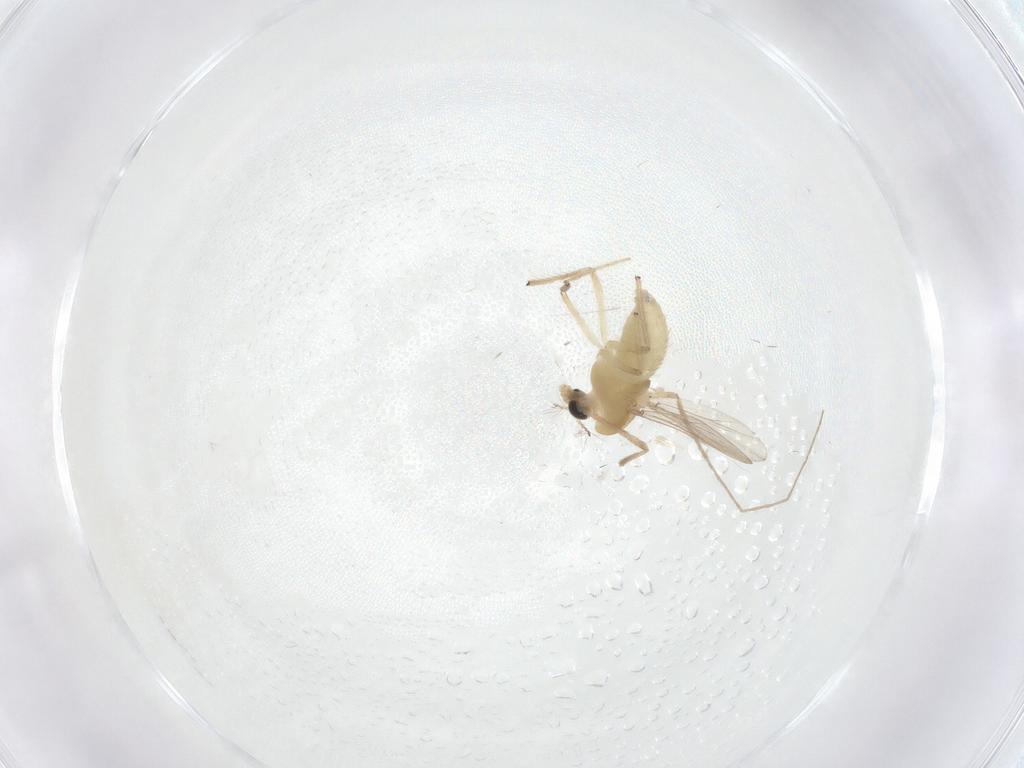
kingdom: Animalia
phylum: Arthropoda
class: Insecta
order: Diptera
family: Chironomidae
